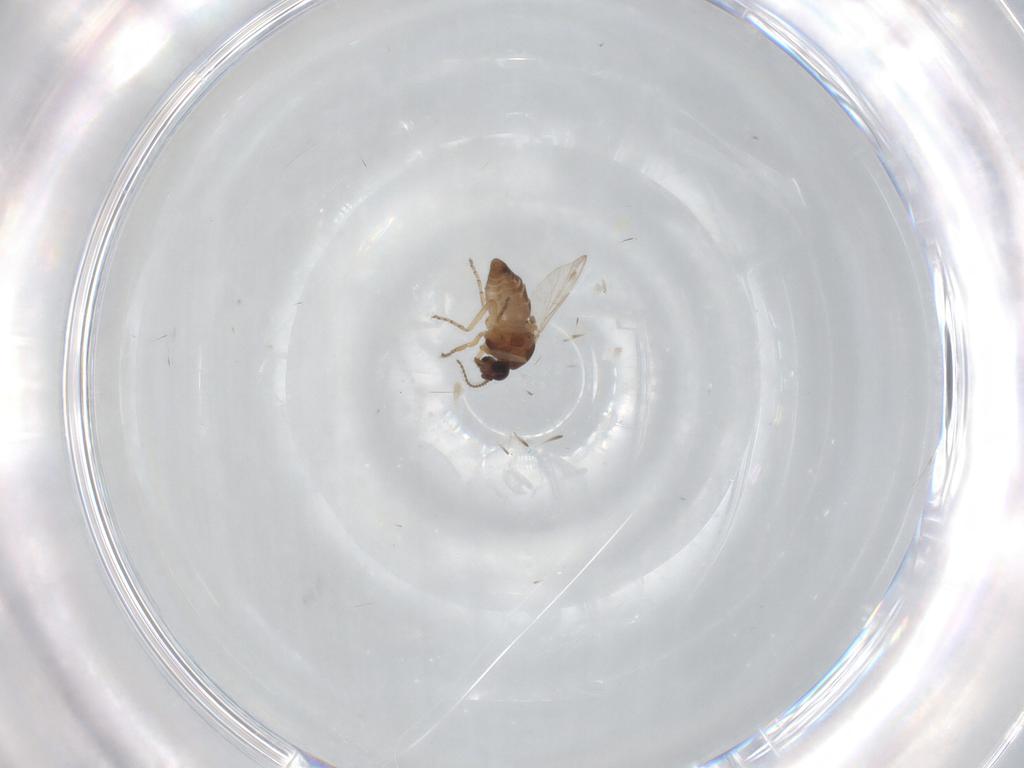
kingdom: Animalia
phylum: Arthropoda
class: Insecta
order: Diptera
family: Ceratopogonidae
